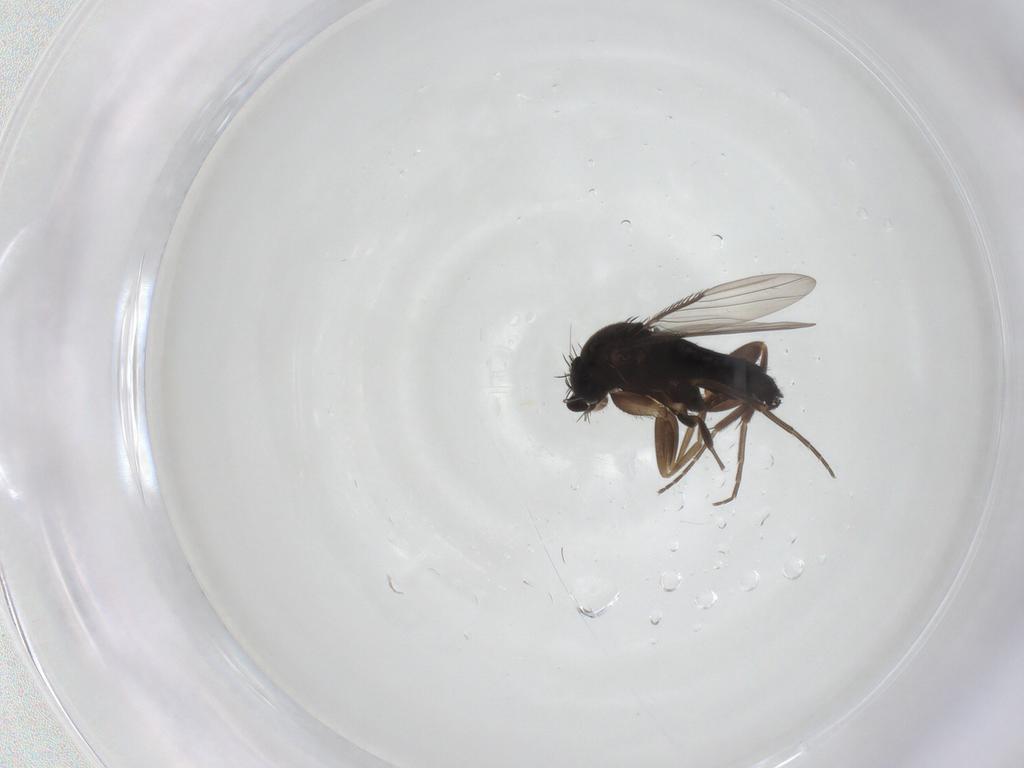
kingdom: Animalia
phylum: Arthropoda
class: Insecta
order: Diptera
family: Phoridae
